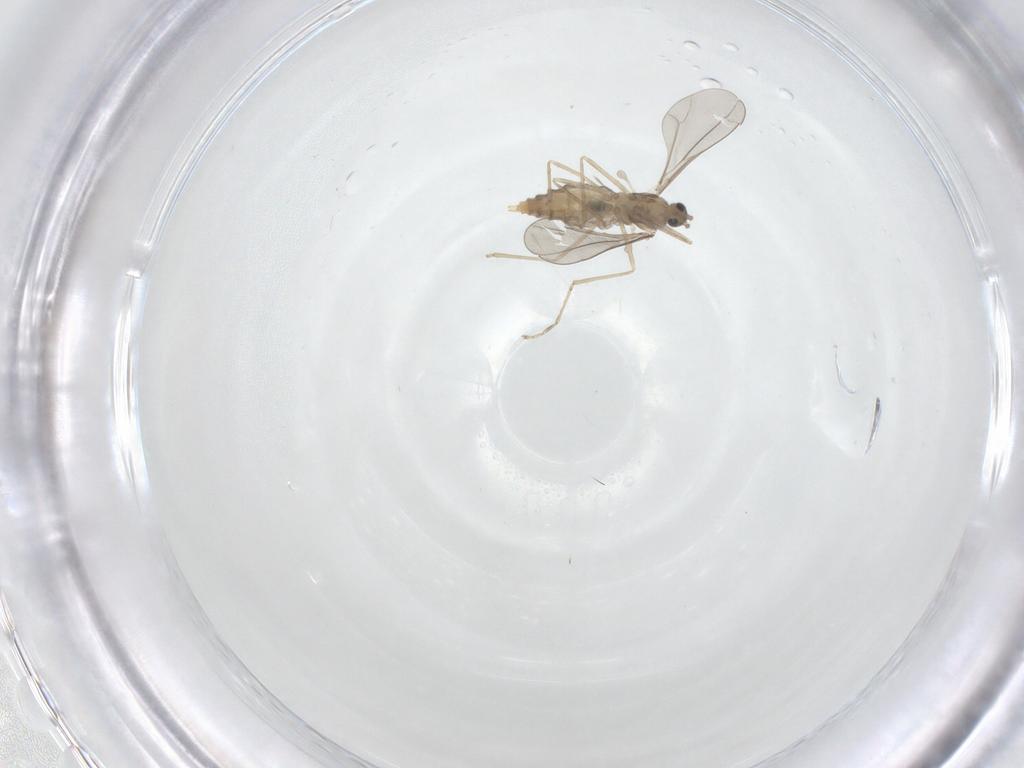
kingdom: Animalia
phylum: Arthropoda
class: Insecta
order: Diptera
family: Cecidomyiidae
